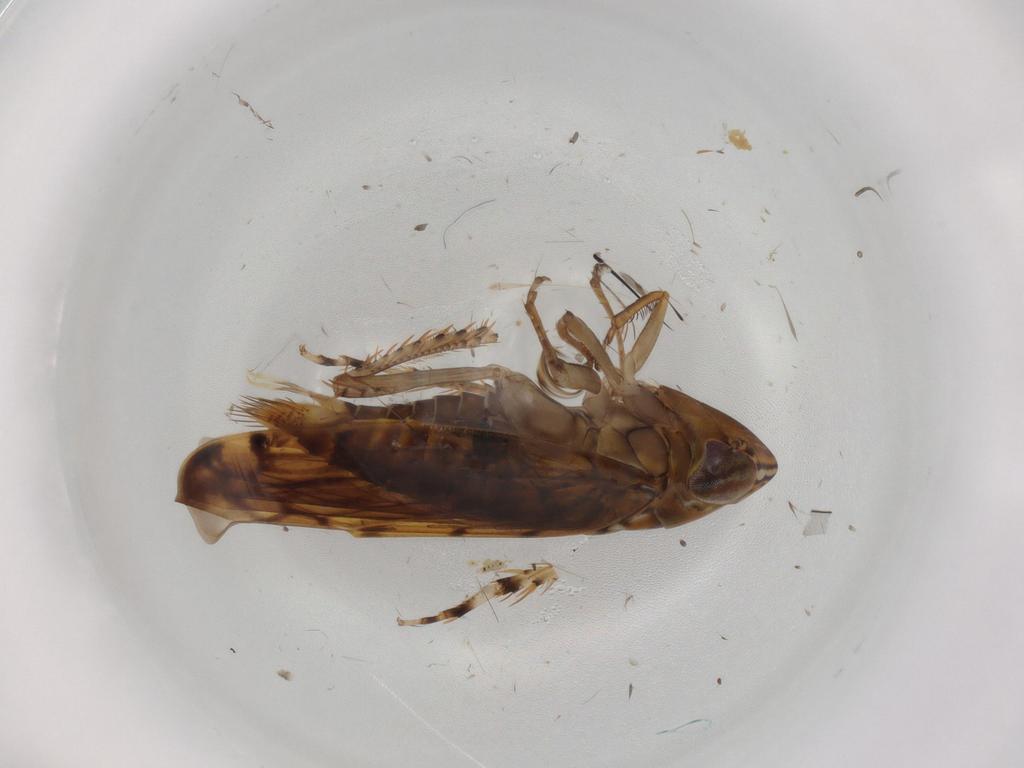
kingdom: Animalia
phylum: Arthropoda
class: Insecta
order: Hemiptera
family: Cicadellidae
